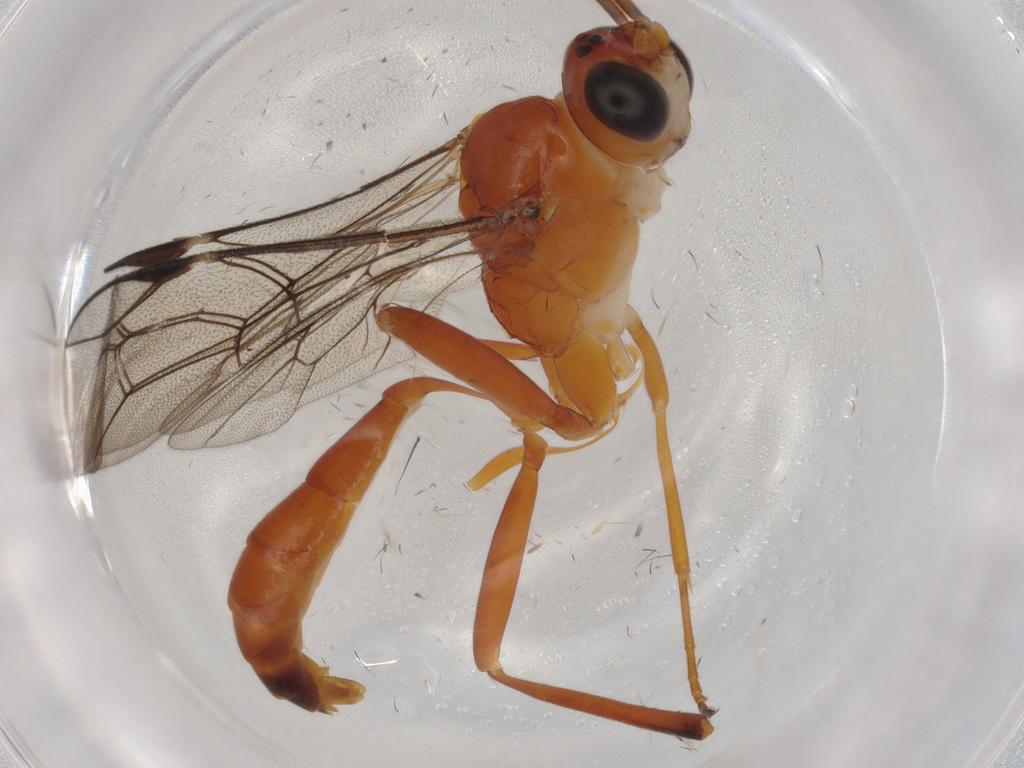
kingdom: Animalia
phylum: Arthropoda
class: Insecta
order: Hymenoptera
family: Ichneumonidae
